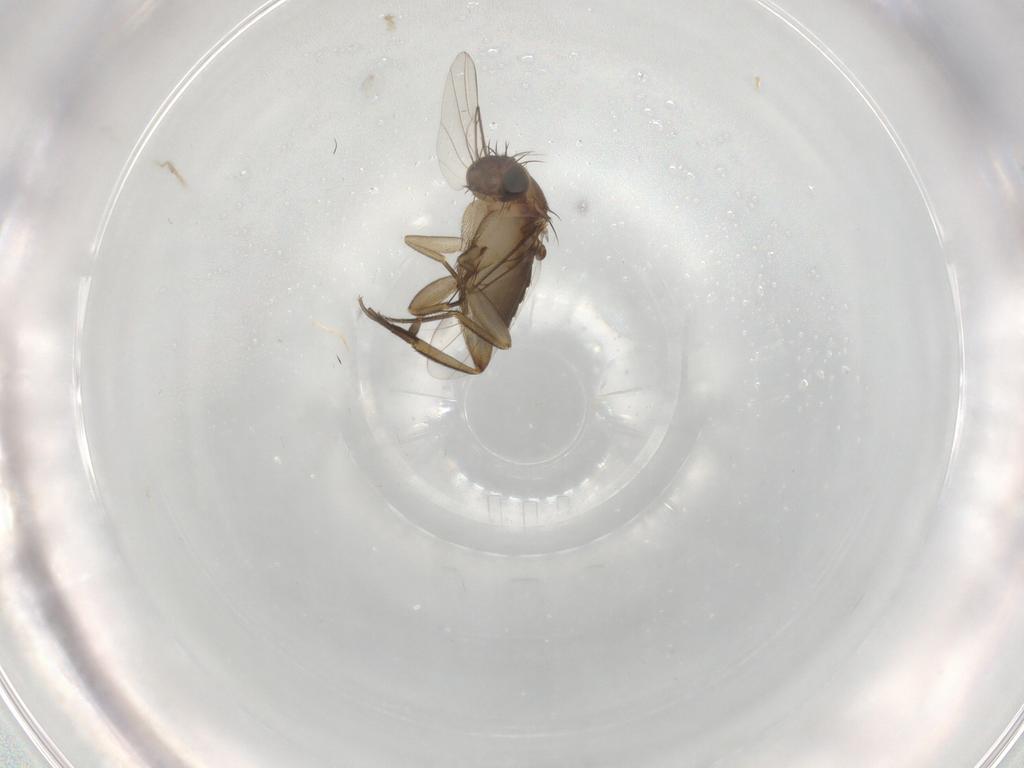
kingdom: Animalia
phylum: Arthropoda
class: Insecta
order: Diptera
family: Phoridae
